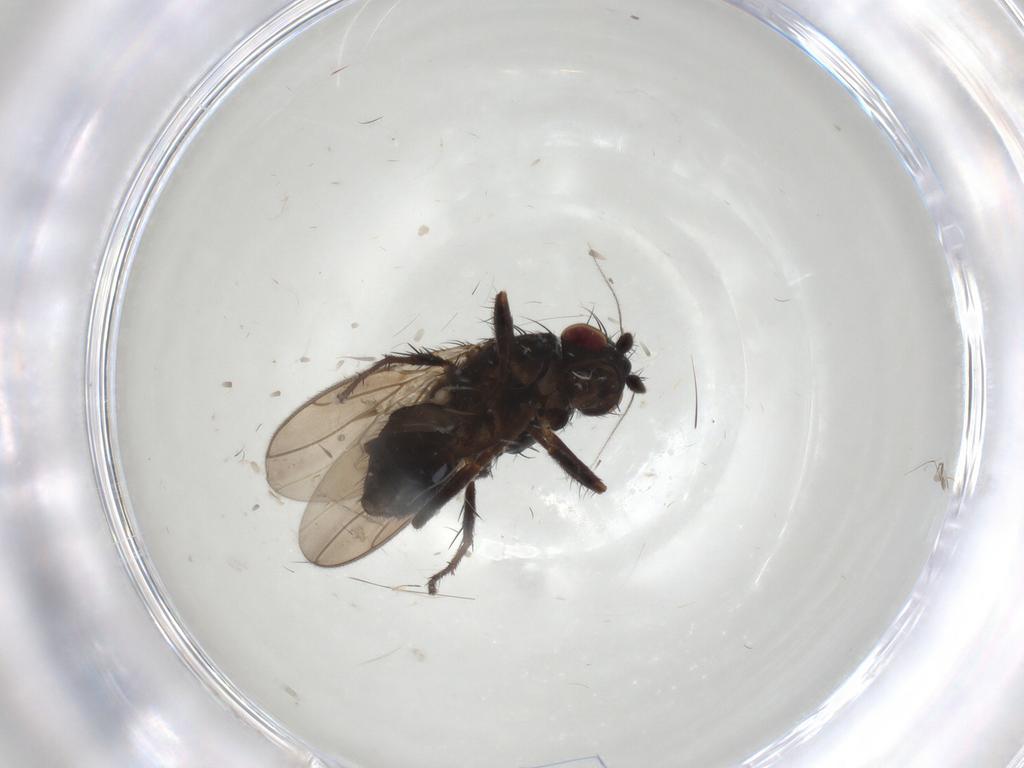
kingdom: Animalia
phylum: Arthropoda
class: Insecta
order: Diptera
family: Sphaeroceridae
